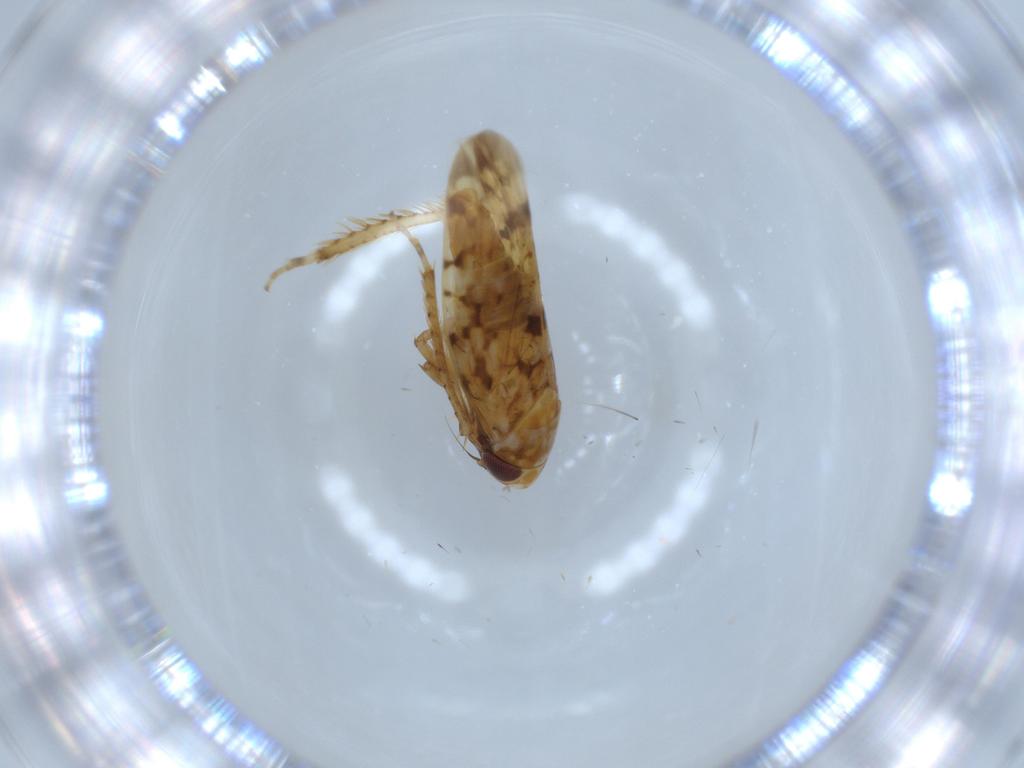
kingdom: Animalia
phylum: Arthropoda
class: Insecta
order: Hemiptera
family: Cicadellidae
